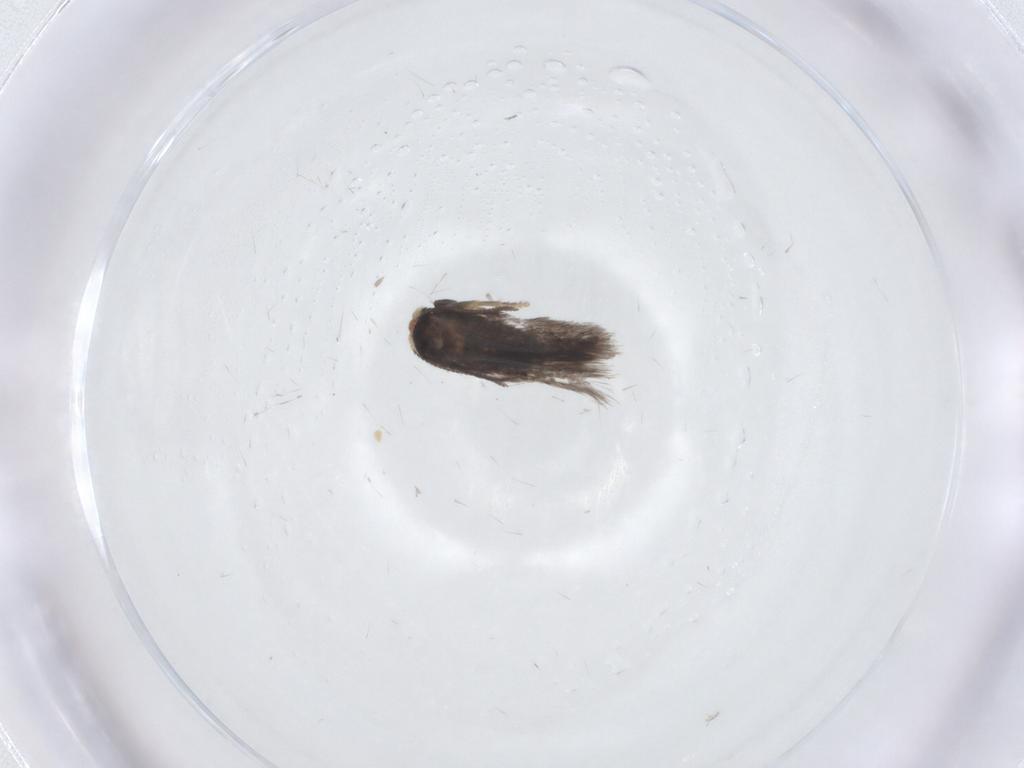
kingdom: Animalia
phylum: Arthropoda
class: Insecta
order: Lepidoptera
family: Nepticulidae
